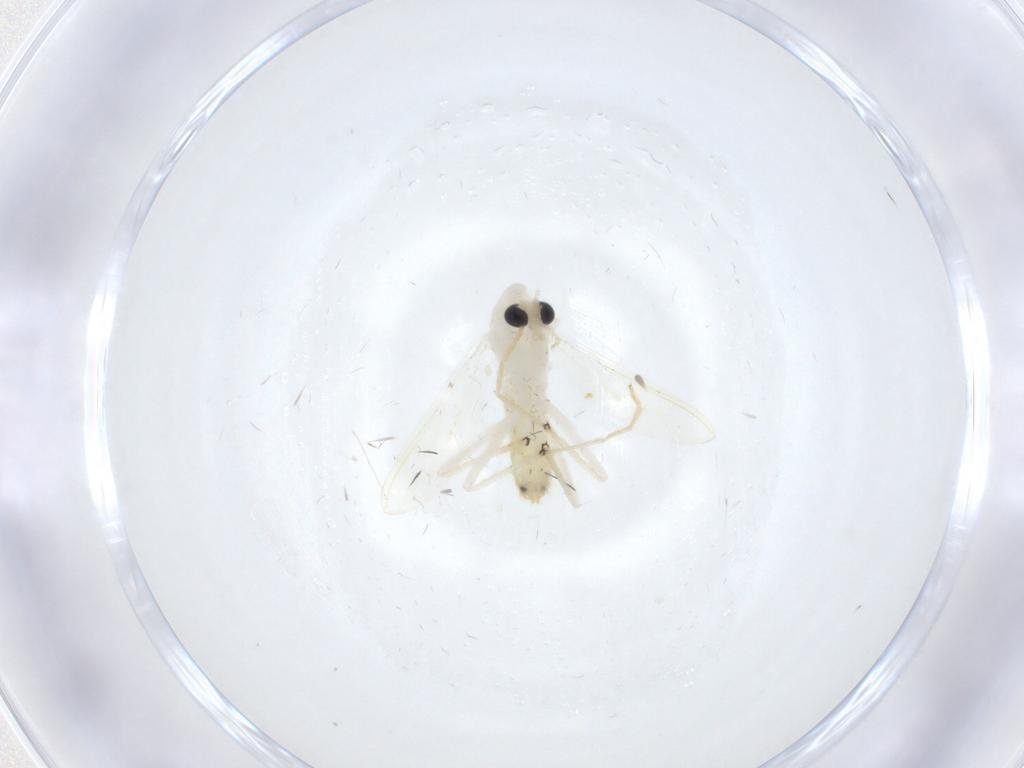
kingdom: Animalia
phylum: Arthropoda
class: Insecta
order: Diptera
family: Chironomidae
